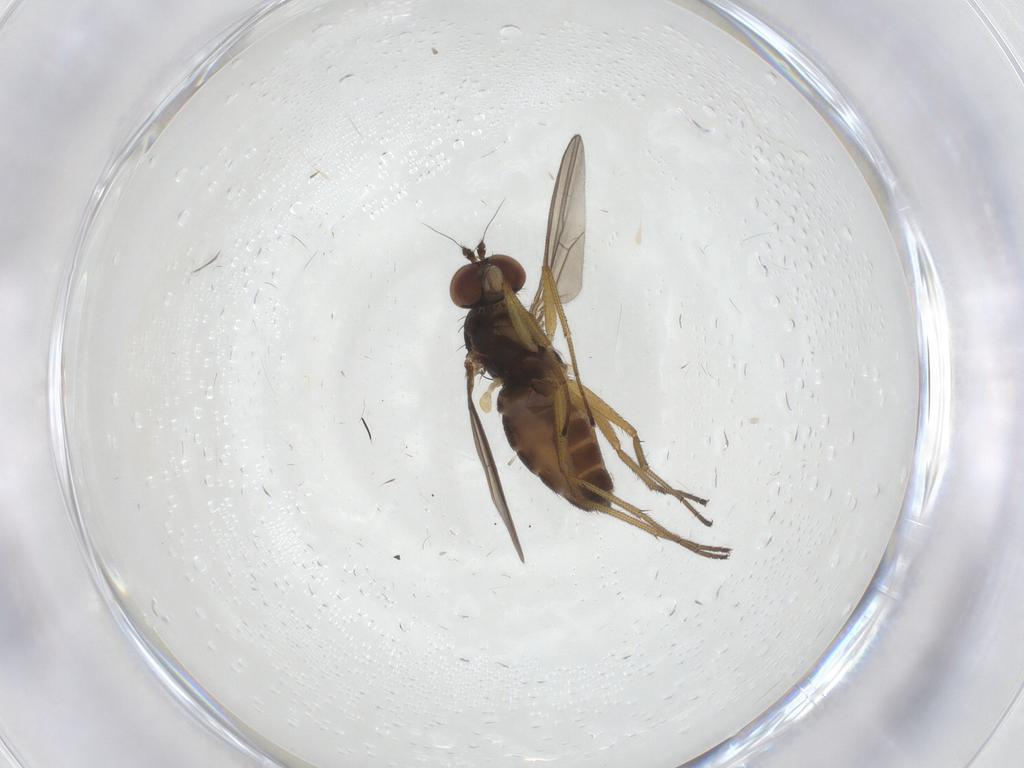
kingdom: Animalia
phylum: Arthropoda
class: Insecta
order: Diptera
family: Dolichopodidae
